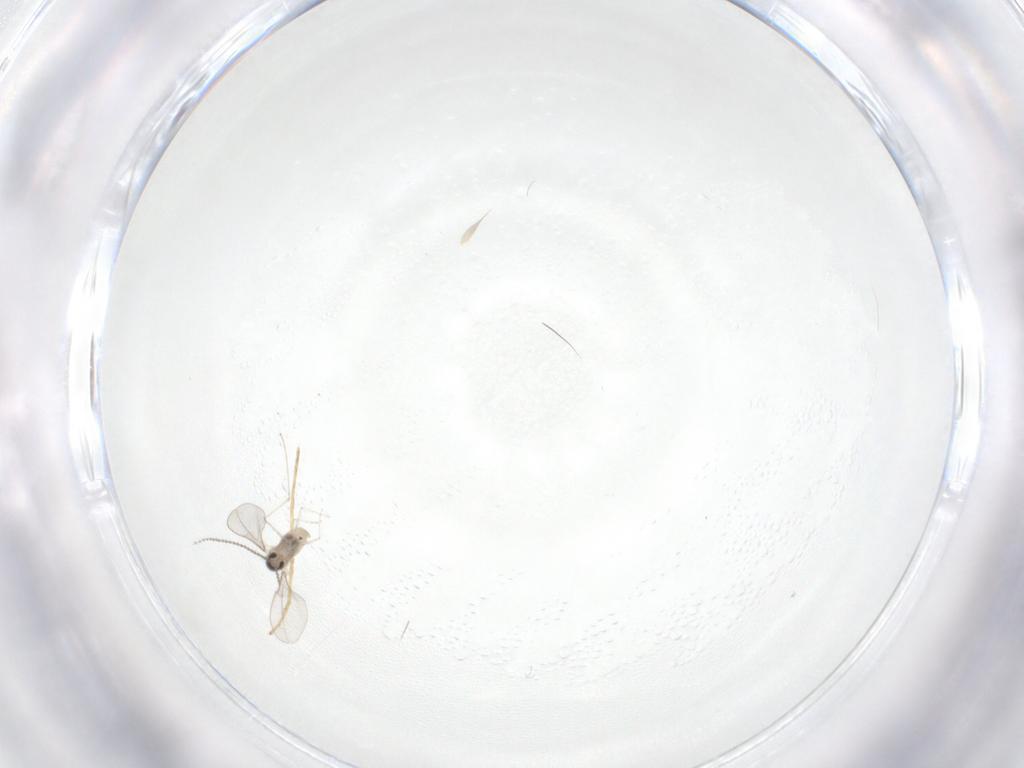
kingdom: Animalia
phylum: Arthropoda
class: Insecta
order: Diptera
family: Cecidomyiidae
